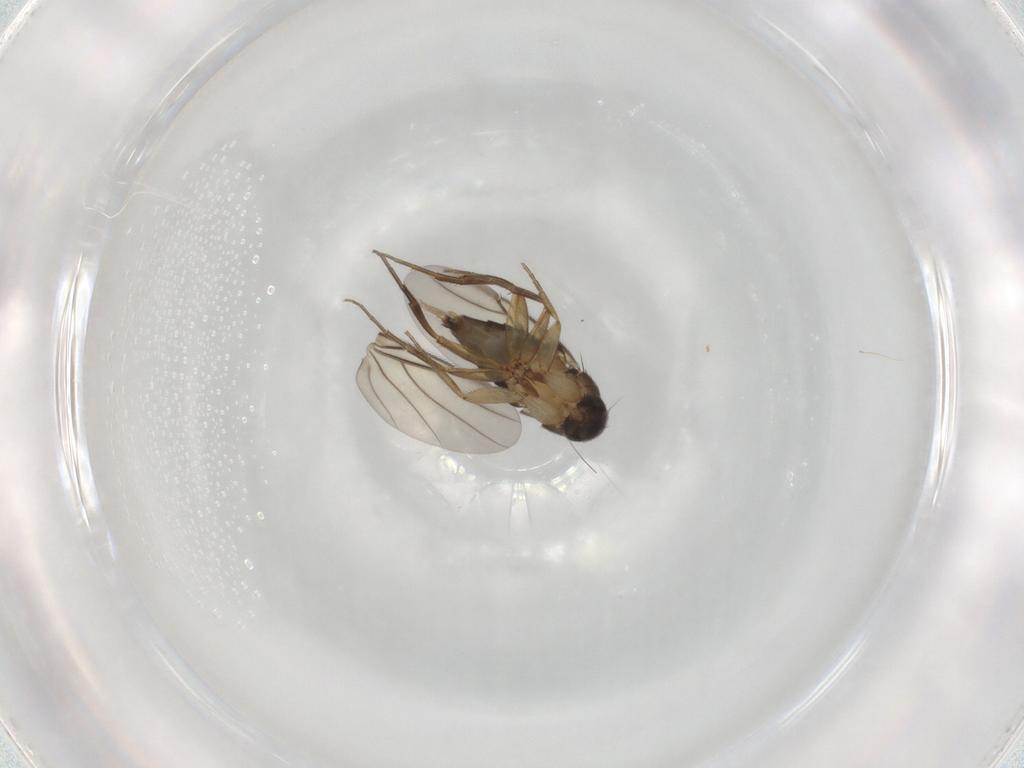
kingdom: Animalia
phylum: Arthropoda
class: Insecta
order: Diptera
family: Phoridae
